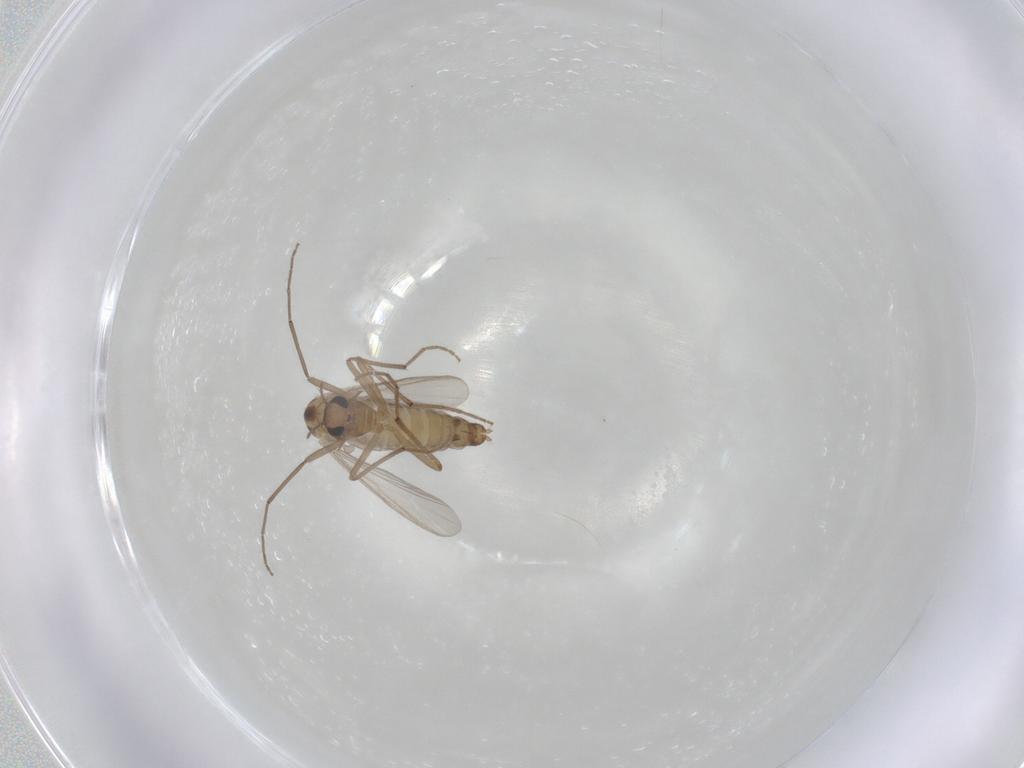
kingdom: Animalia
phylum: Arthropoda
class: Insecta
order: Diptera
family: Chironomidae
